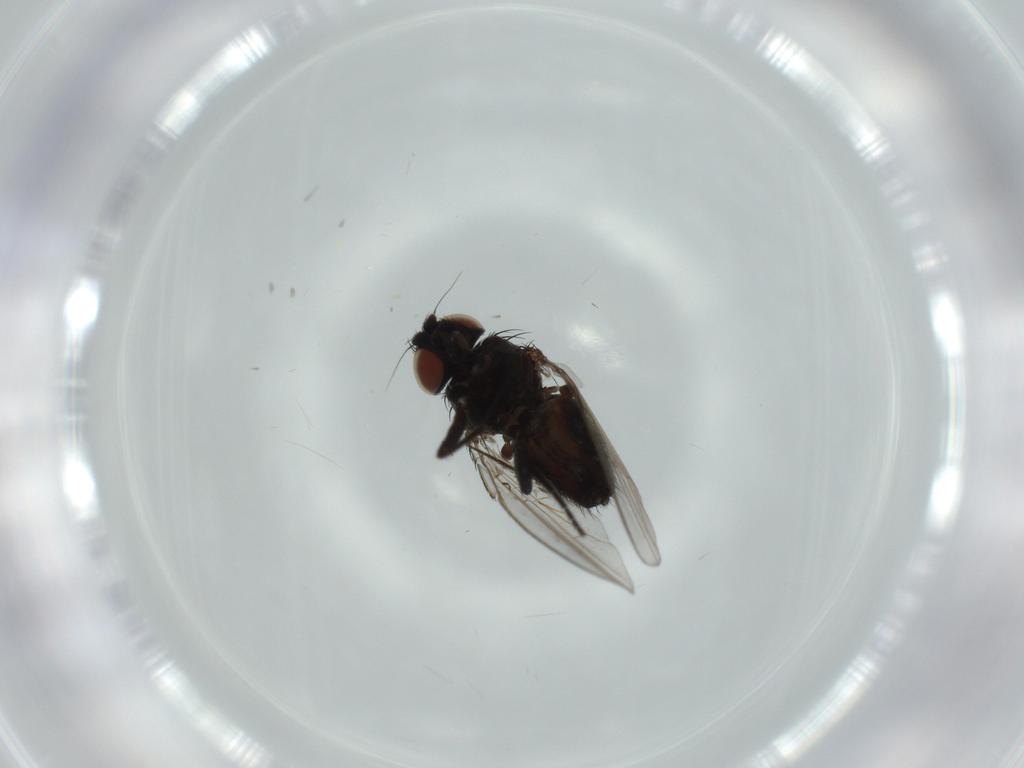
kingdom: Animalia
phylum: Arthropoda
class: Insecta
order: Diptera
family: Milichiidae
